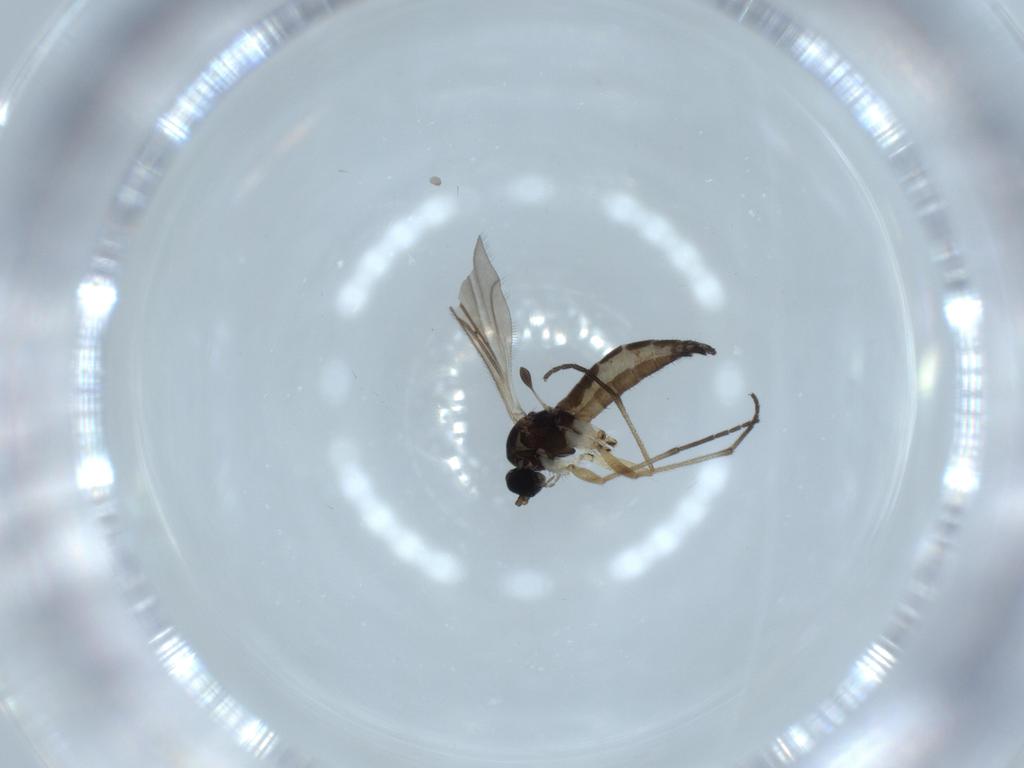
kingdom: Animalia
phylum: Arthropoda
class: Insecta
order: Diptera
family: Sciaridae
